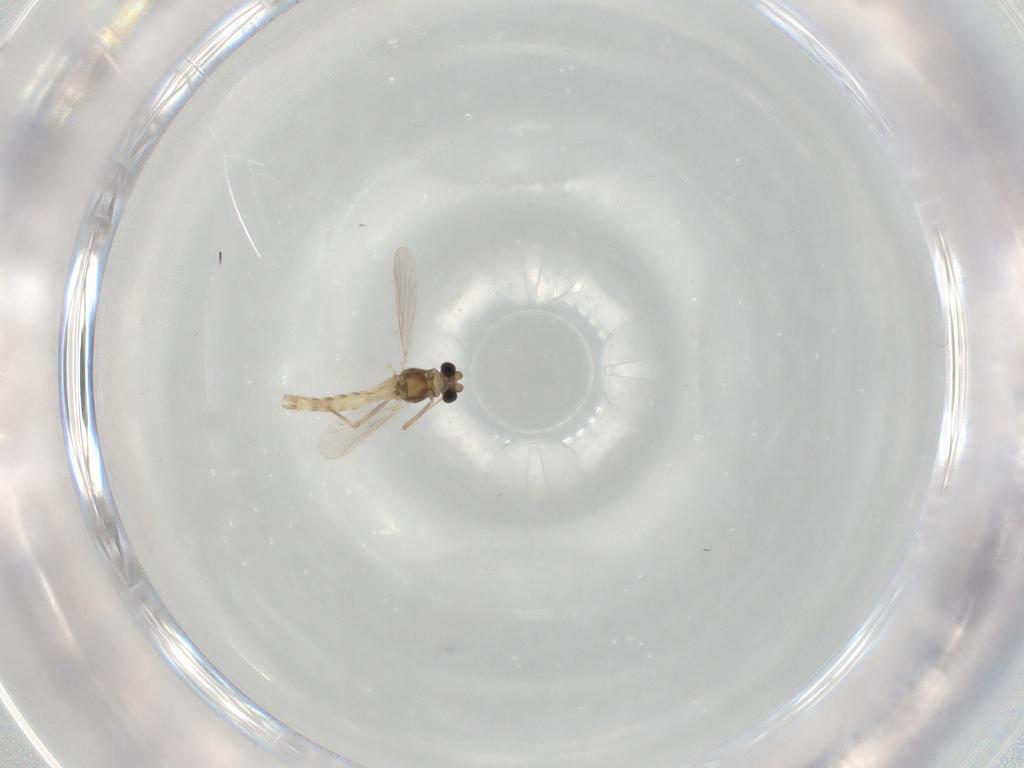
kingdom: Animalia
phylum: Arthropoda
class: Insecta
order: Diptera
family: Chironomidae
